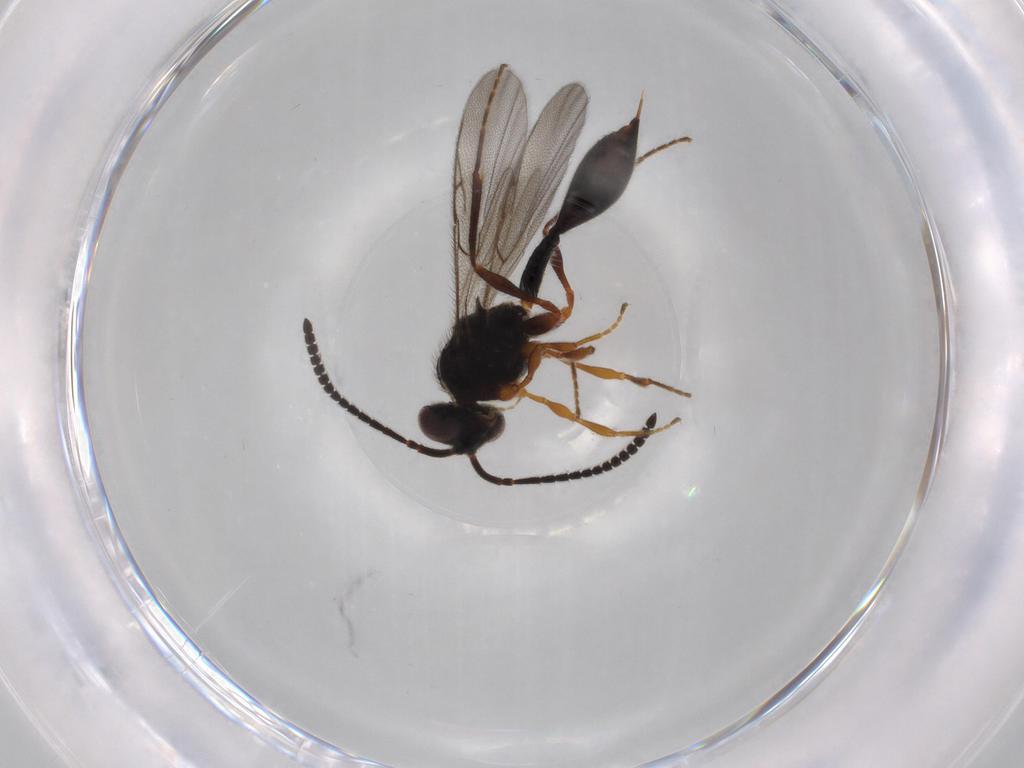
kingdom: Animalia
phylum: Arthropoda
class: Insecta
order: Hymenoptera
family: Diapriidae
